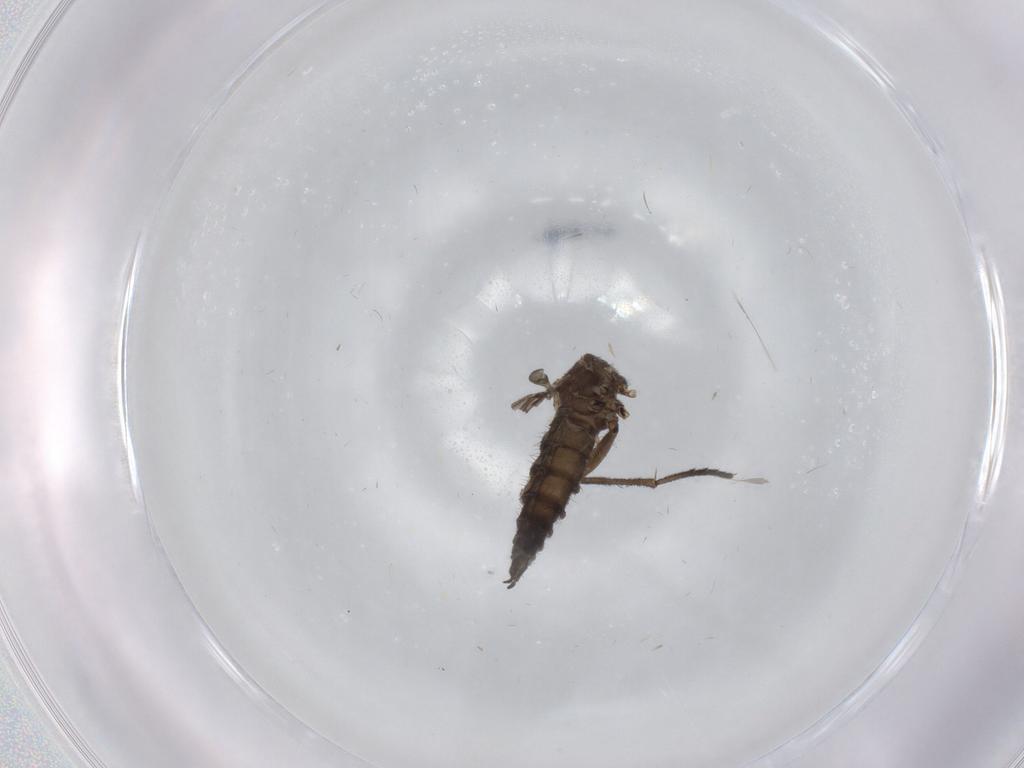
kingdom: Animalia
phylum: Arthropoda
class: Insecta
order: Diptera
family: Sciaridae
